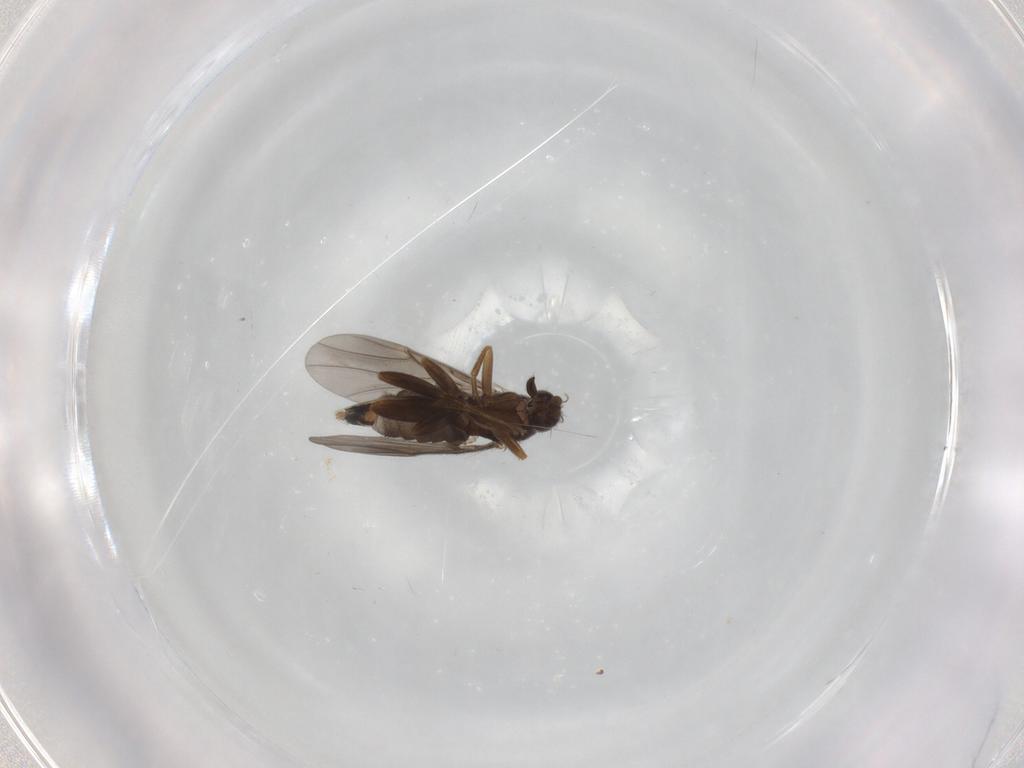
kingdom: Animalia
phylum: Arthropoda
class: Insecta
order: Diptera
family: Phoridae
